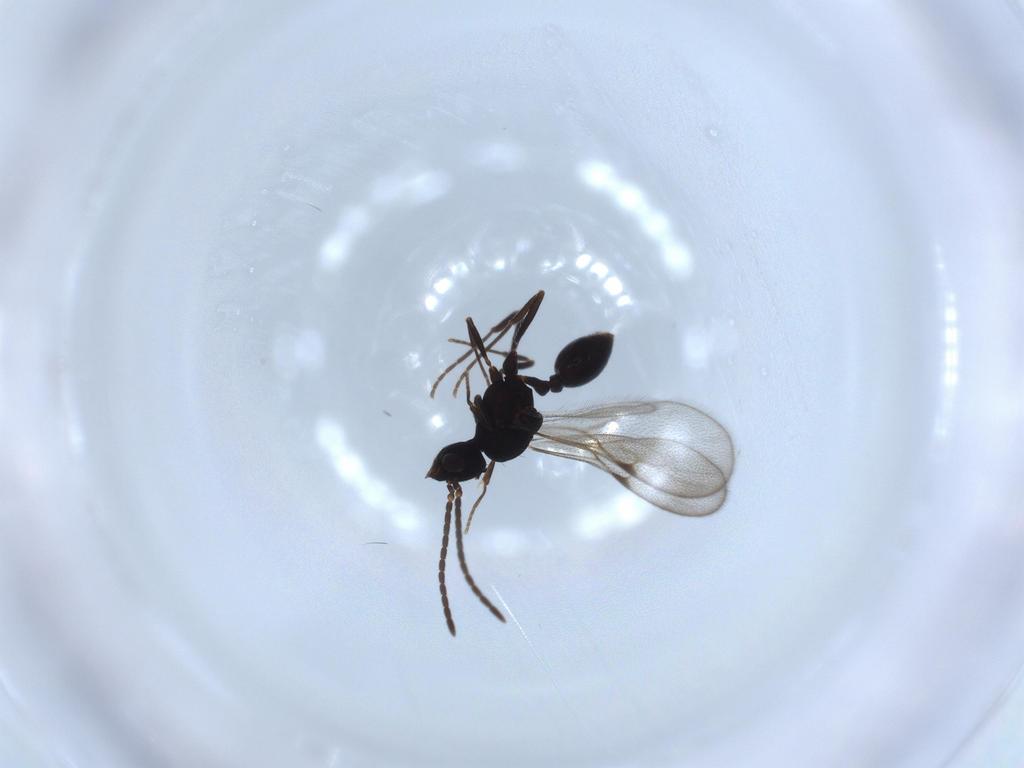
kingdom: Animalia
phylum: Arthropoda
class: Insecta
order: Hymenoptera
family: Formicidae
